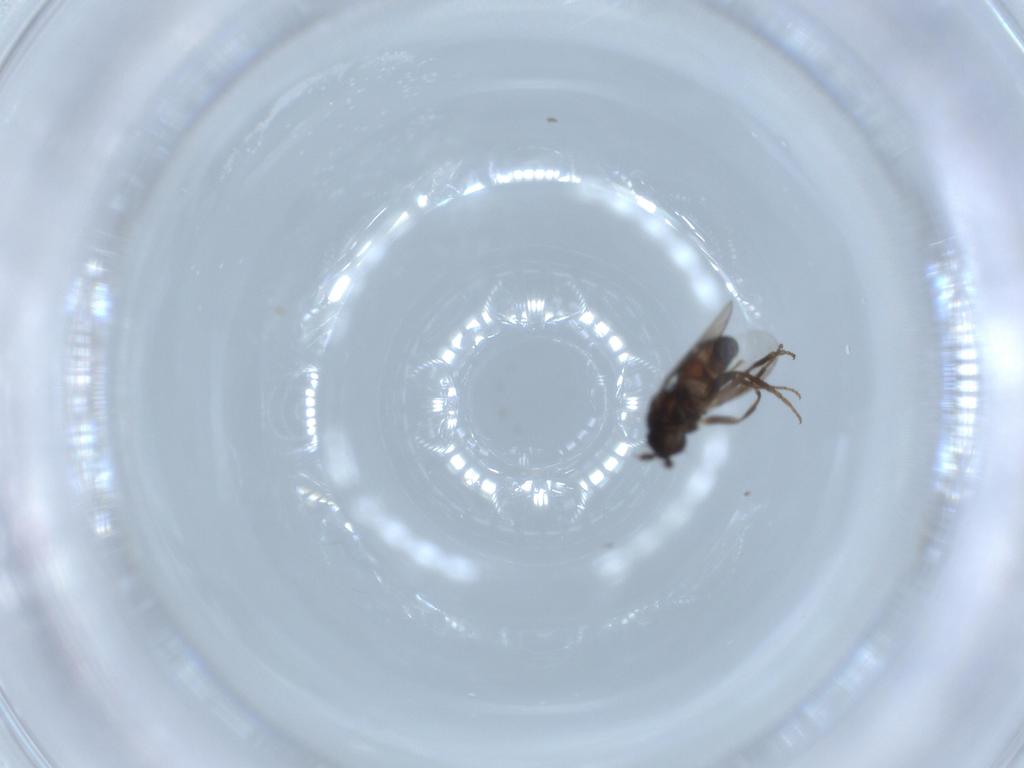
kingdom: Animalia
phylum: Arthropoda
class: Insecta
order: Diptera
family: Sphaeroceridae
